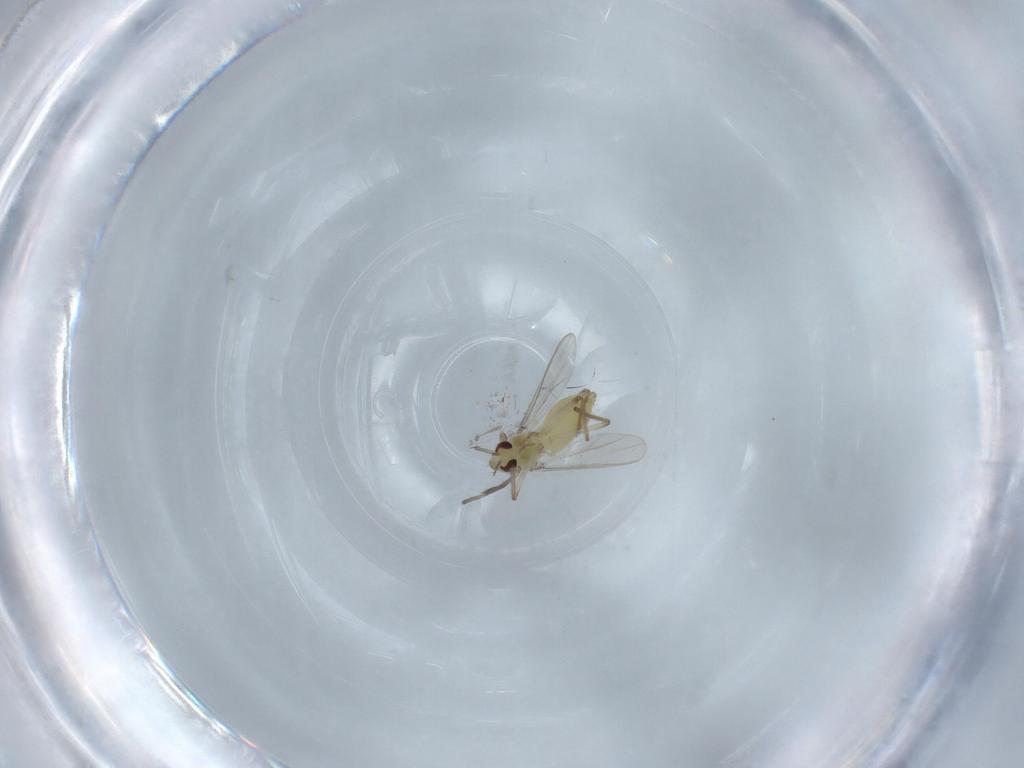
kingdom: Animalia
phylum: Arthropoda
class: Insecta
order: Diptera
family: Chironomidae
